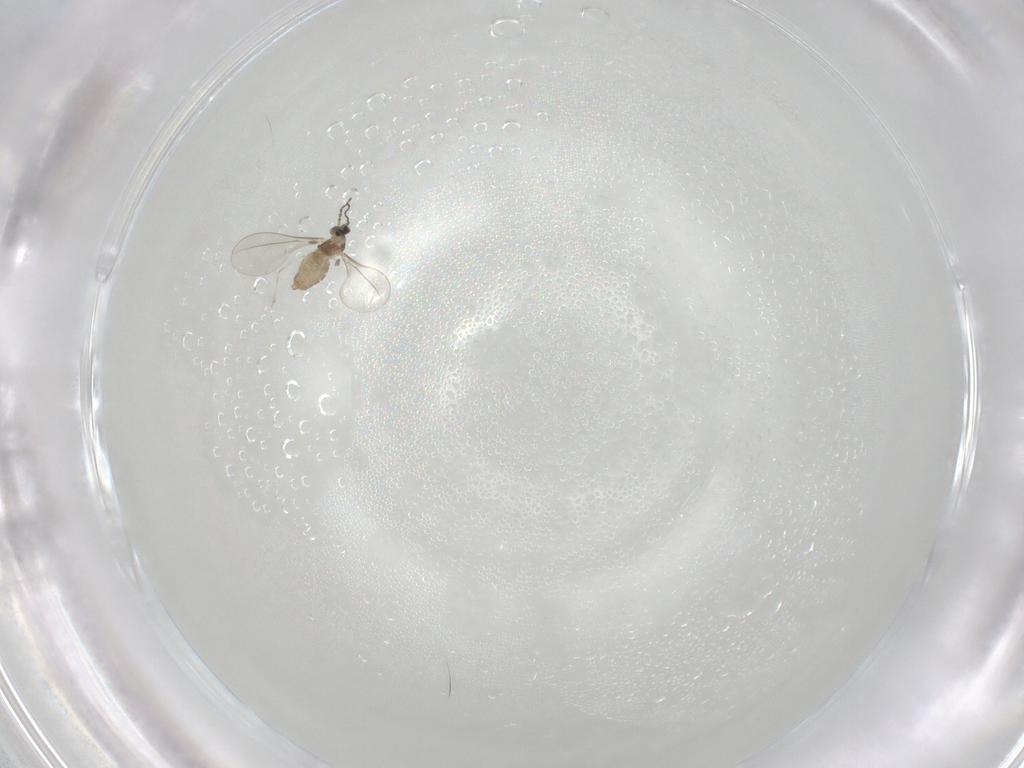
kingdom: Animalia
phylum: Arthropoda
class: Insecta
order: Diptera
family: Cecidomyiidae
